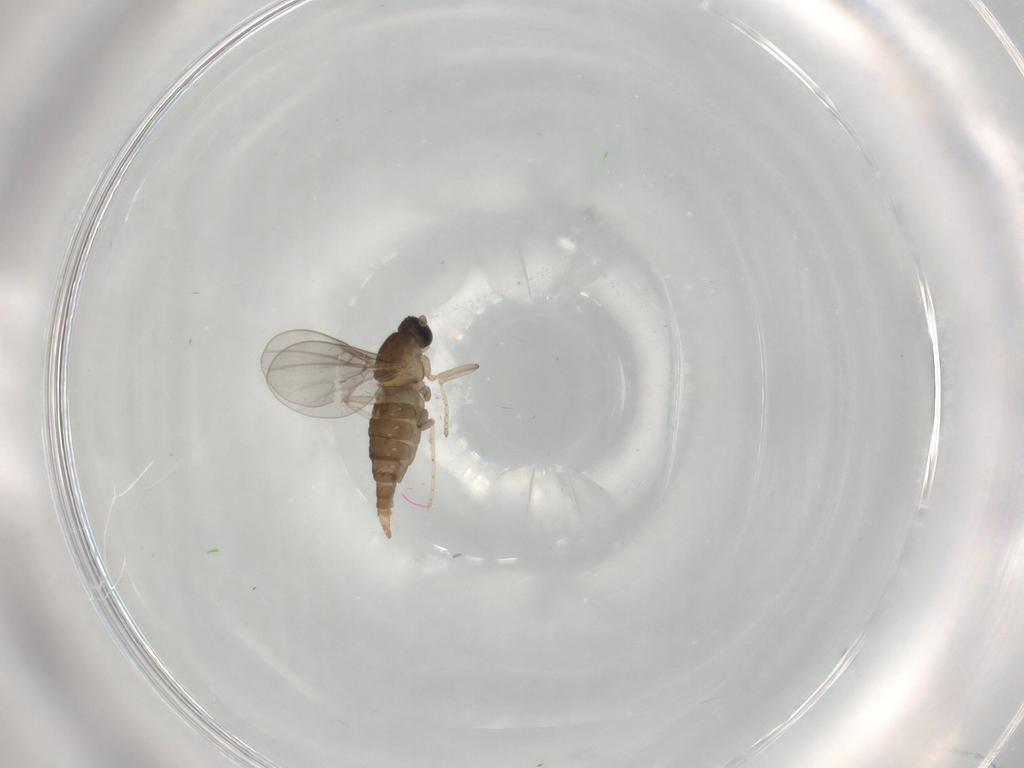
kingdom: Animalia
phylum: Arthropoda
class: Insecta
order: Diptera
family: Cecidomyiidae
